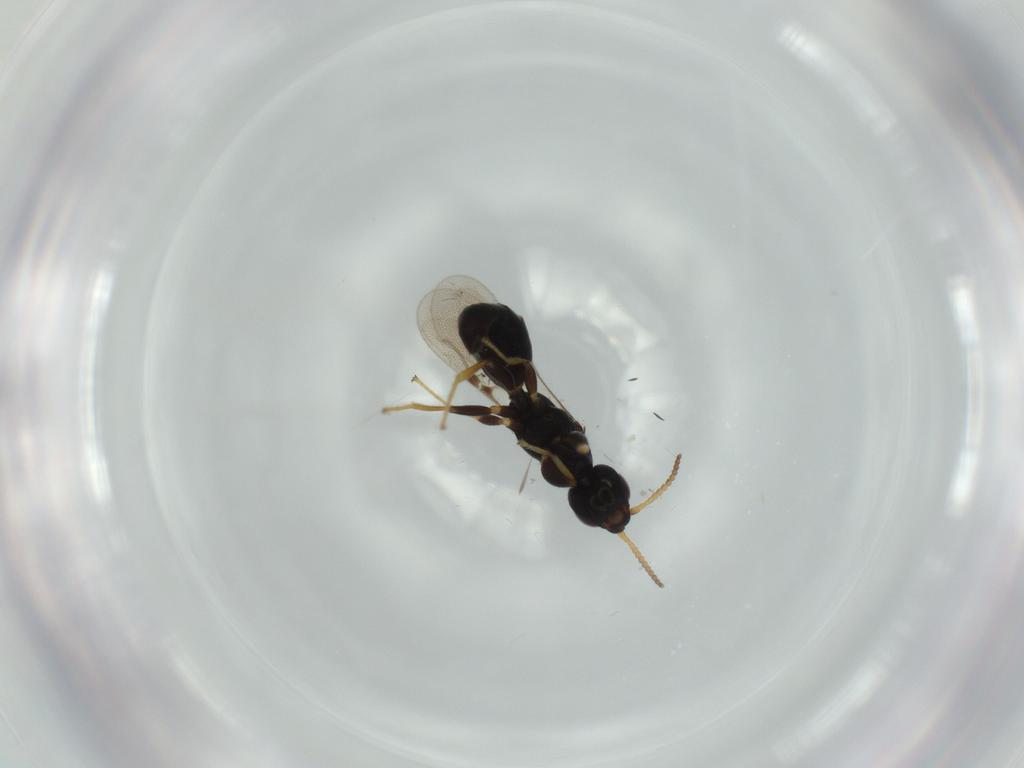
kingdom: Animalia
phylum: Arthropoda
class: Insecta
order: Hymenoptera
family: Bethylidae
